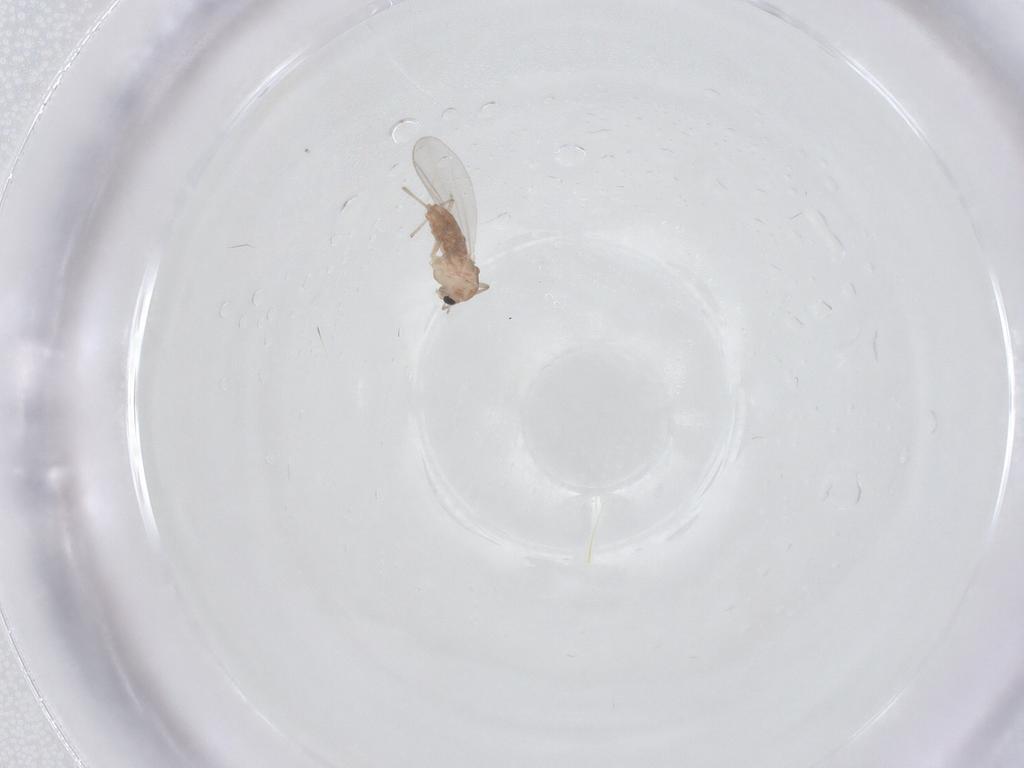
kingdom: Animalia
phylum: Arthropoda
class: Insecta
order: Diptera
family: Chironomidae
